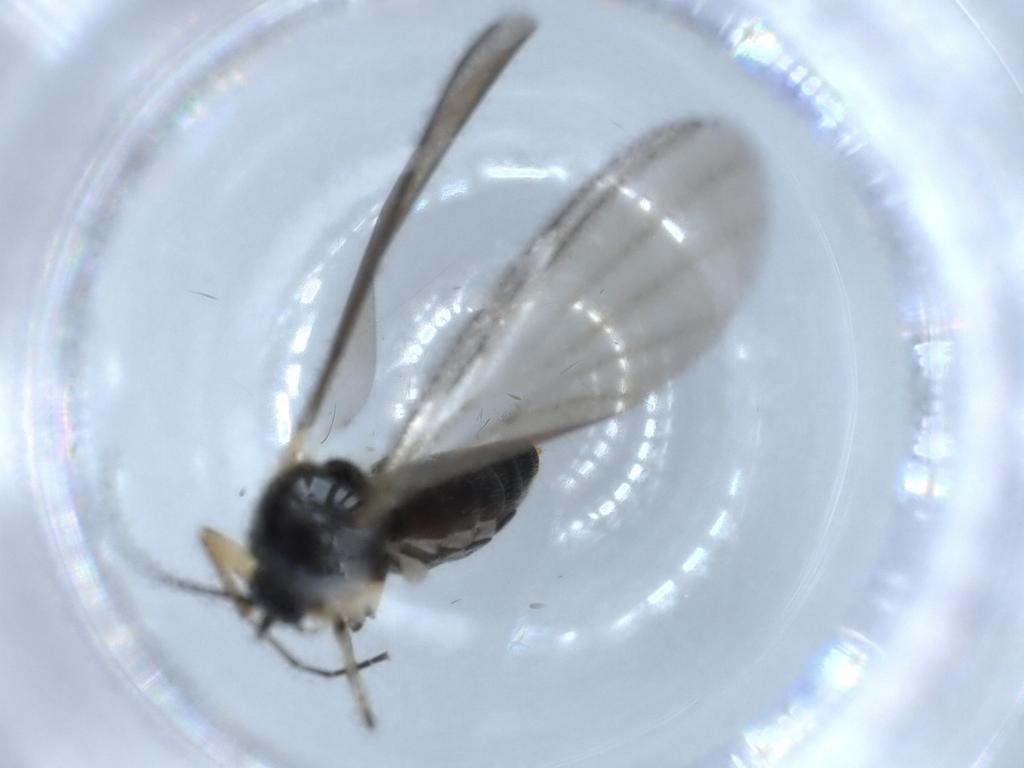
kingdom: Animalia
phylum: Arthropoda
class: Insecta
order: Diptera
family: Mycetophilidae
